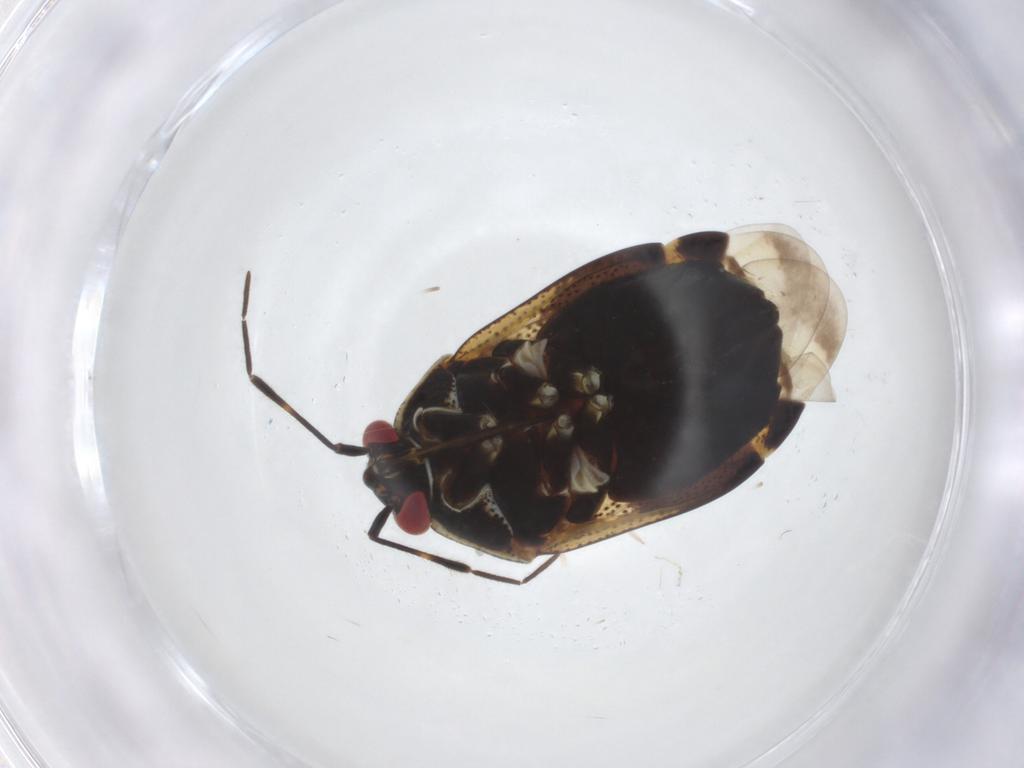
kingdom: Animalia
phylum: Arthropoda
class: Insecta
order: Hemiptera
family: Miridae
